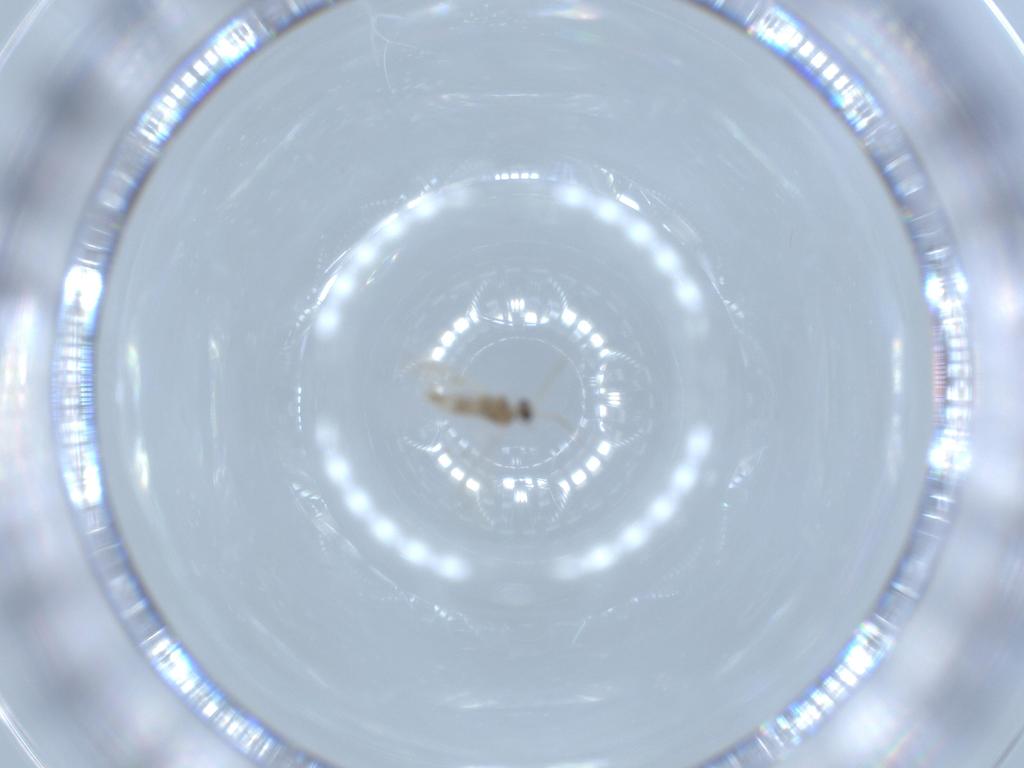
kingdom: Animalia
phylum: Arthropoda
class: Insecta
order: Diptera
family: Cecidomyiidae
